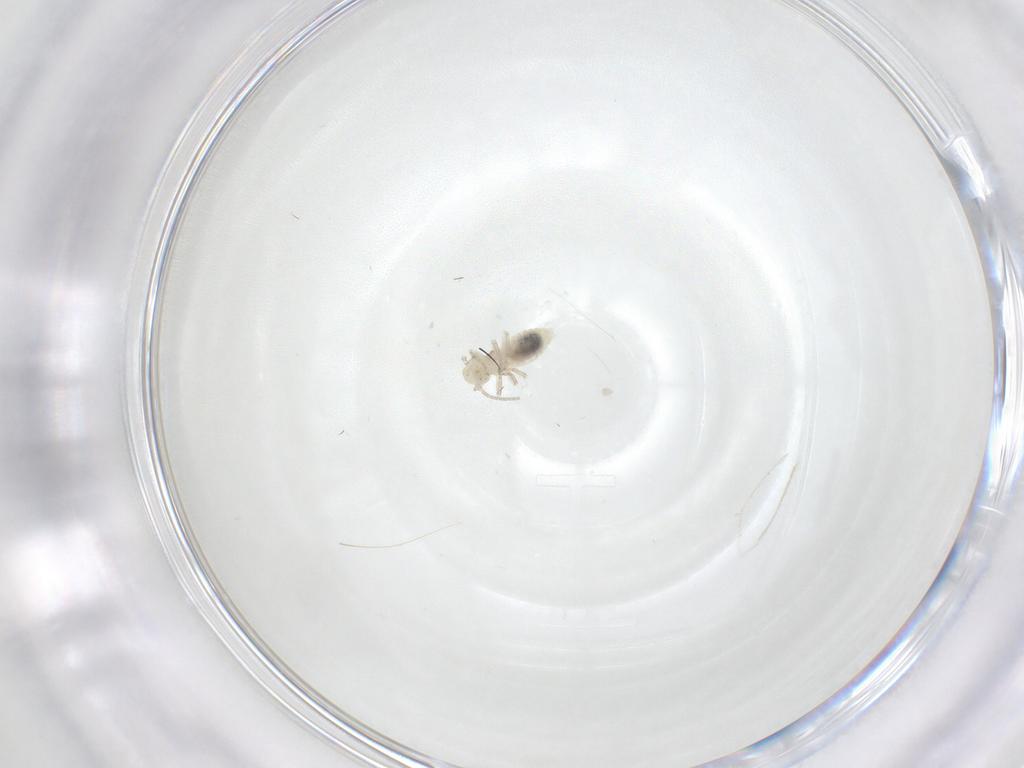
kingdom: Animalia
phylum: Arthropoda
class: Insecta
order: Psocodea
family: Caeciliusidae
